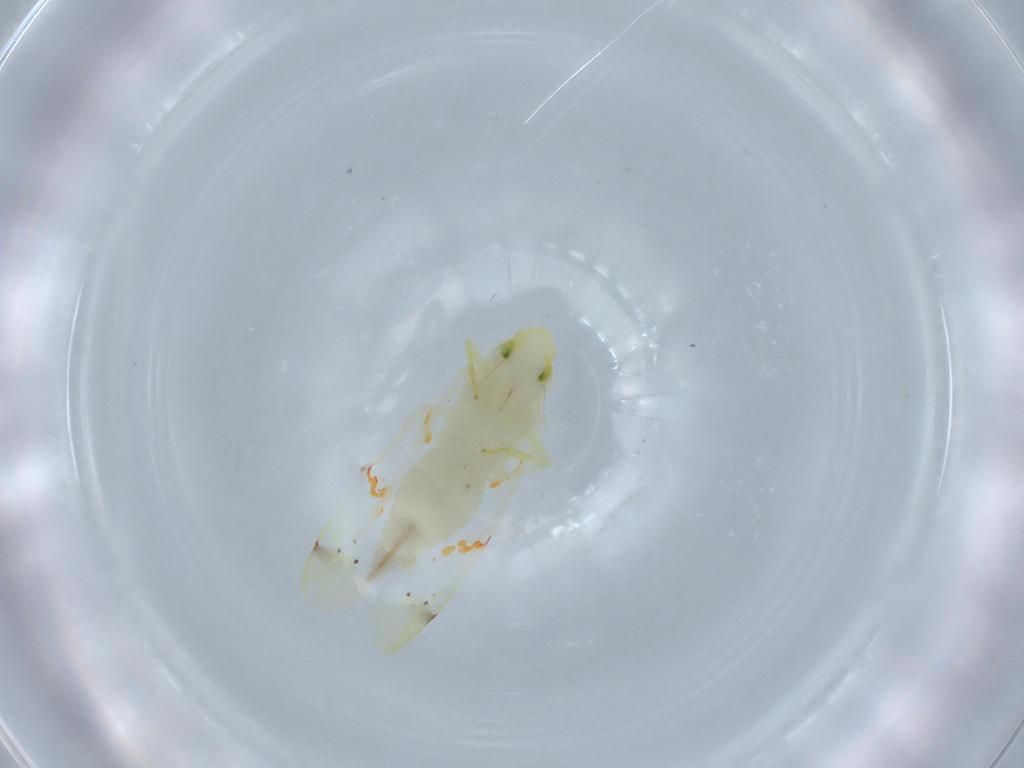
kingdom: Animalia
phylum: Arthropoda
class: Insecta
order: Hemiptera
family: Cicadellidae
